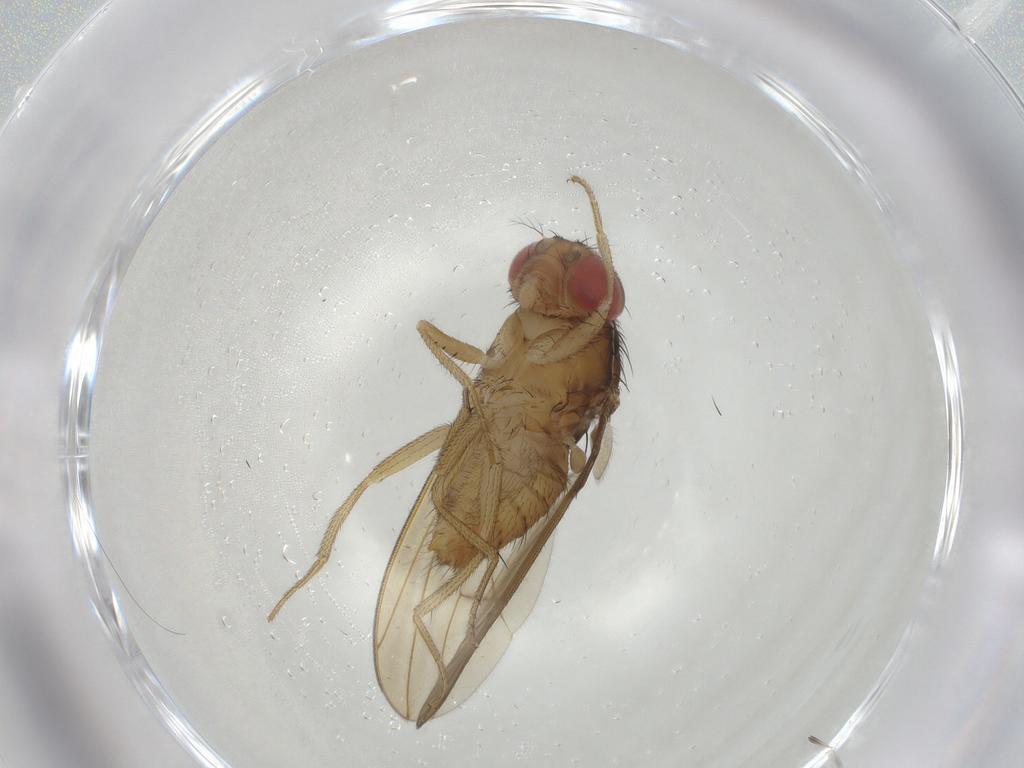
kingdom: Animalia
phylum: Arthropoda
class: Insecta
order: Diptera
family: Drosophilidae
